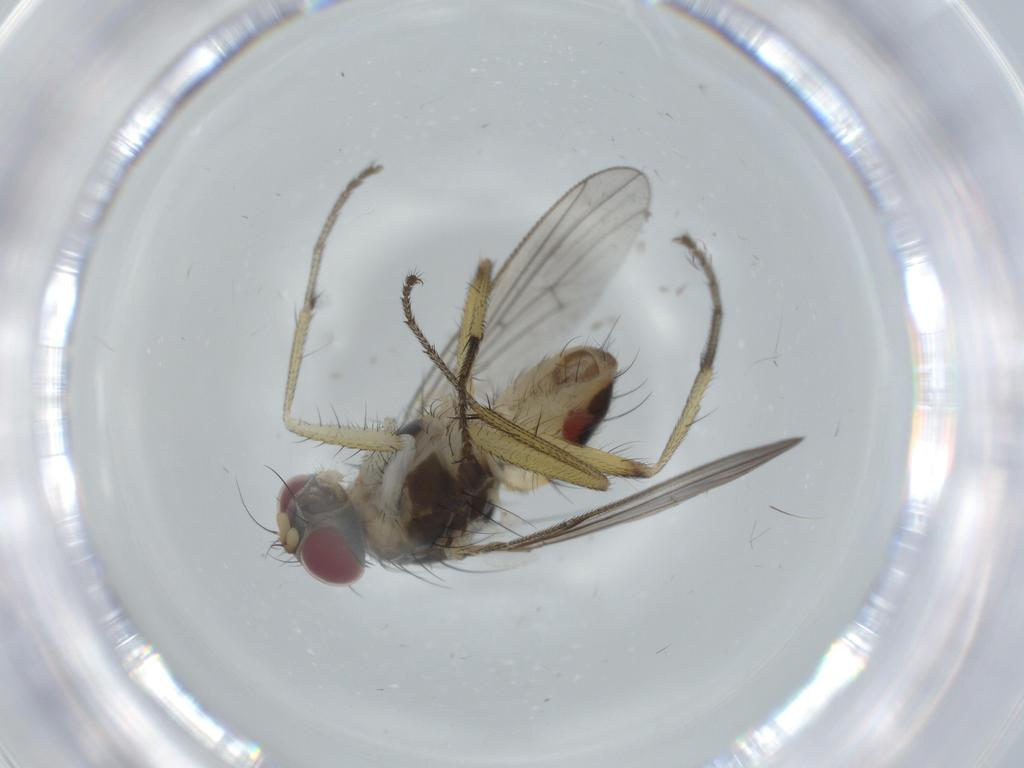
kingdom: Animalia
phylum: Arthropoda
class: Insecta
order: Diptera
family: Muscidae
